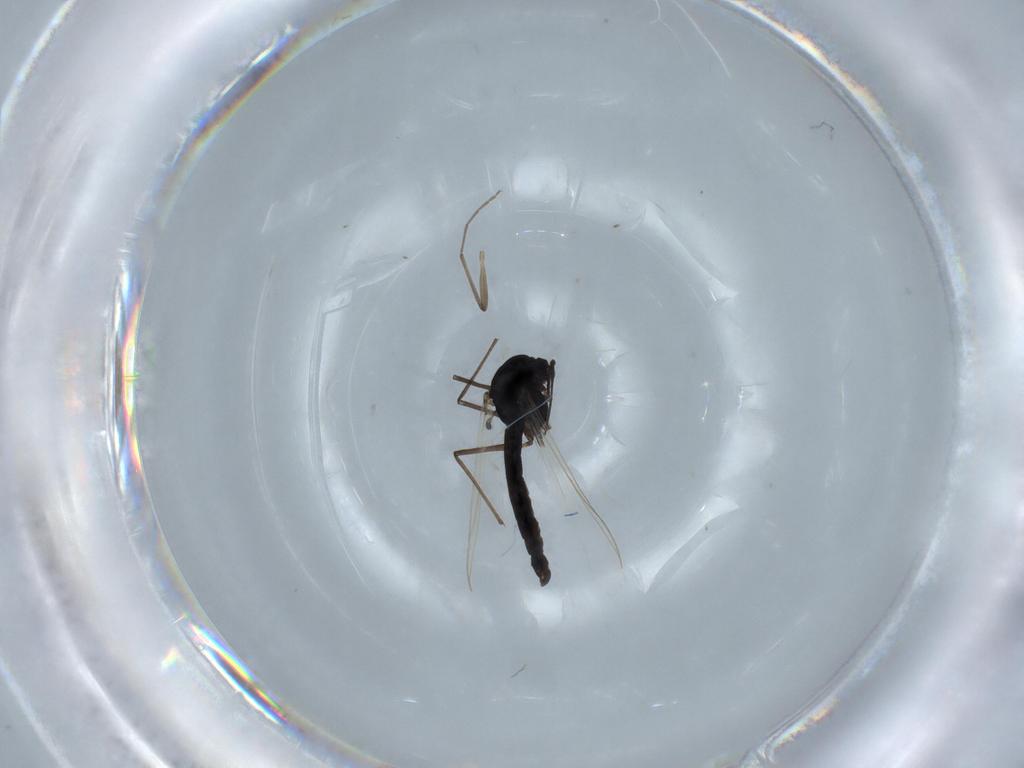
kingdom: Animalia
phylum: Arthropoda
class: Insecta
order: Diptera
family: Chironomidae
